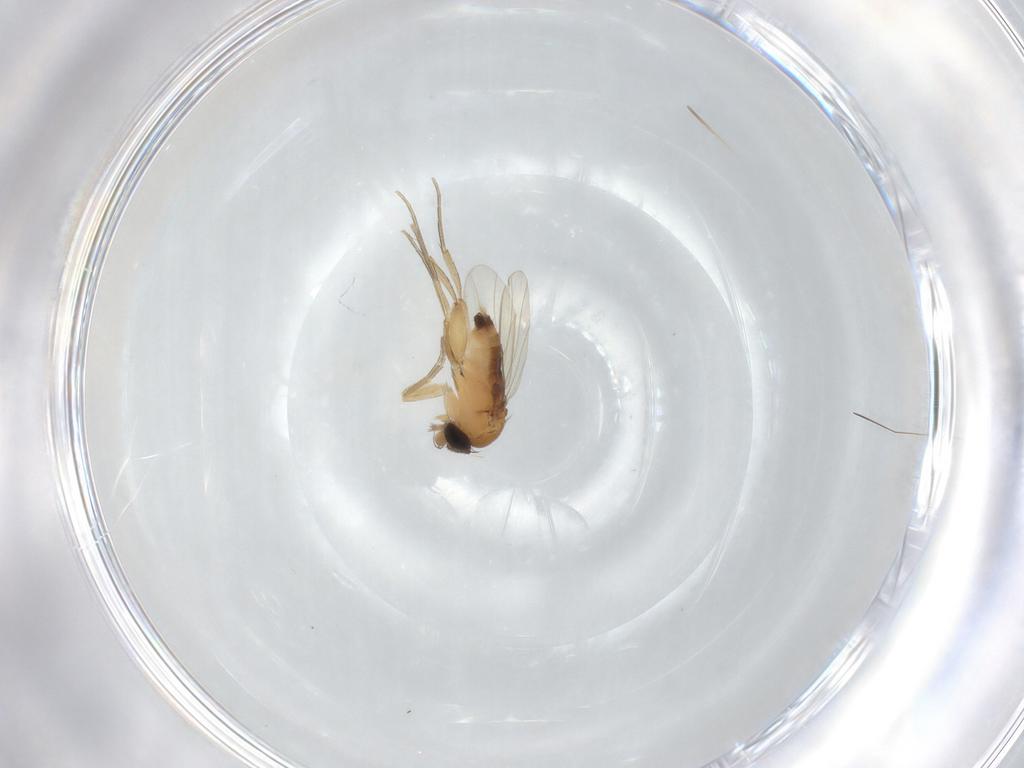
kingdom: Animalia
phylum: Arthropoda
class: Insecta
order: Diptera
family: Phoridae
